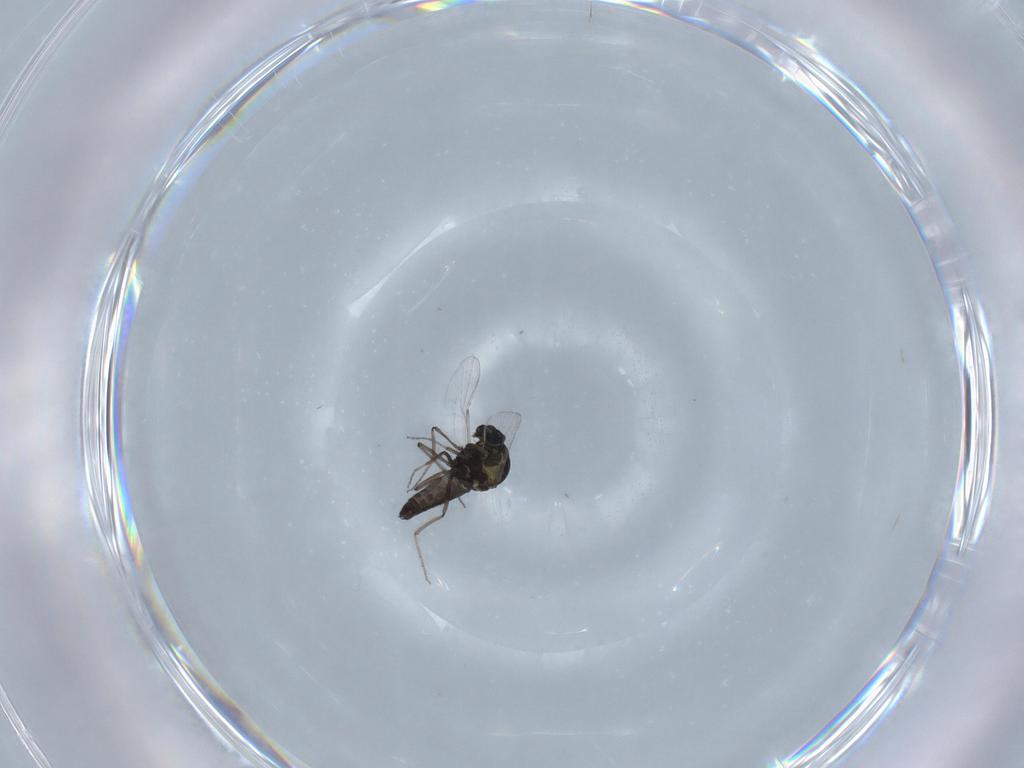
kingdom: Animalia
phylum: Arthropoda
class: Insecta
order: Diptera
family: Ceratopogonidae
